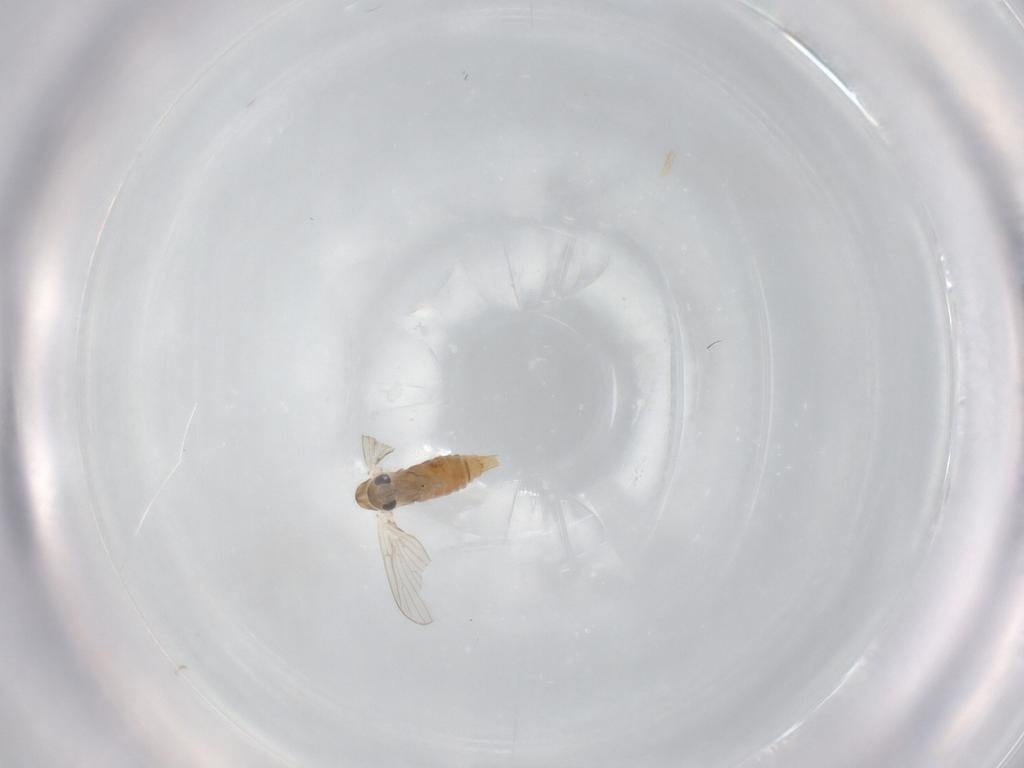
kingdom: Animalia
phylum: Arthropoda
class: Insecta
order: Diptera
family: Psychodidae
